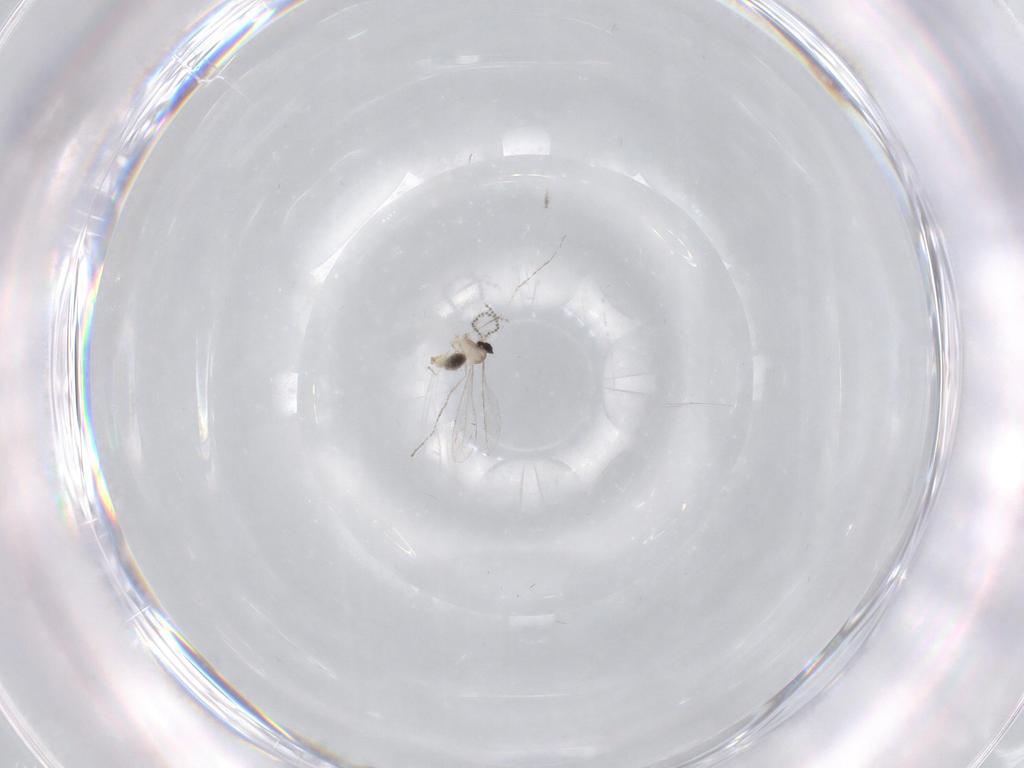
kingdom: Animalia
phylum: Arthropoda
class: Insecta
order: Diptera
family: Cecidomyiidae
